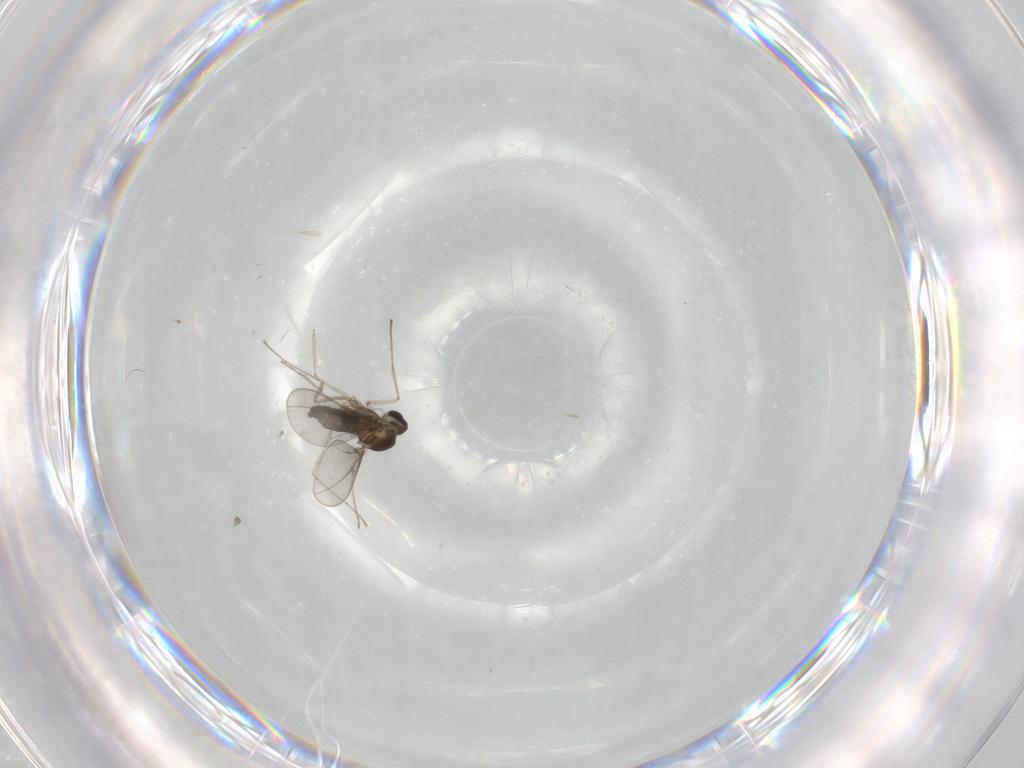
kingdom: Animalia
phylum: Arthropoda
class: Insecta
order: Diptera
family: Cecidomyiidae
